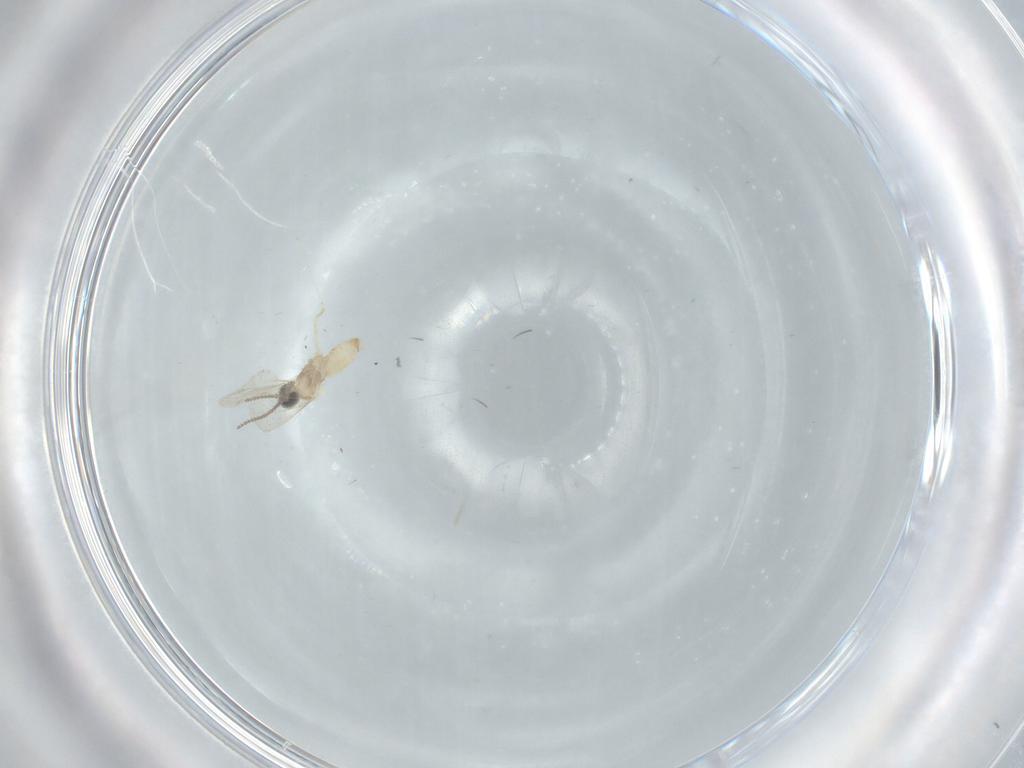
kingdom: Animalia
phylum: Arthropoda
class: Insecta
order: Diptera
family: Cecidomyiidae
